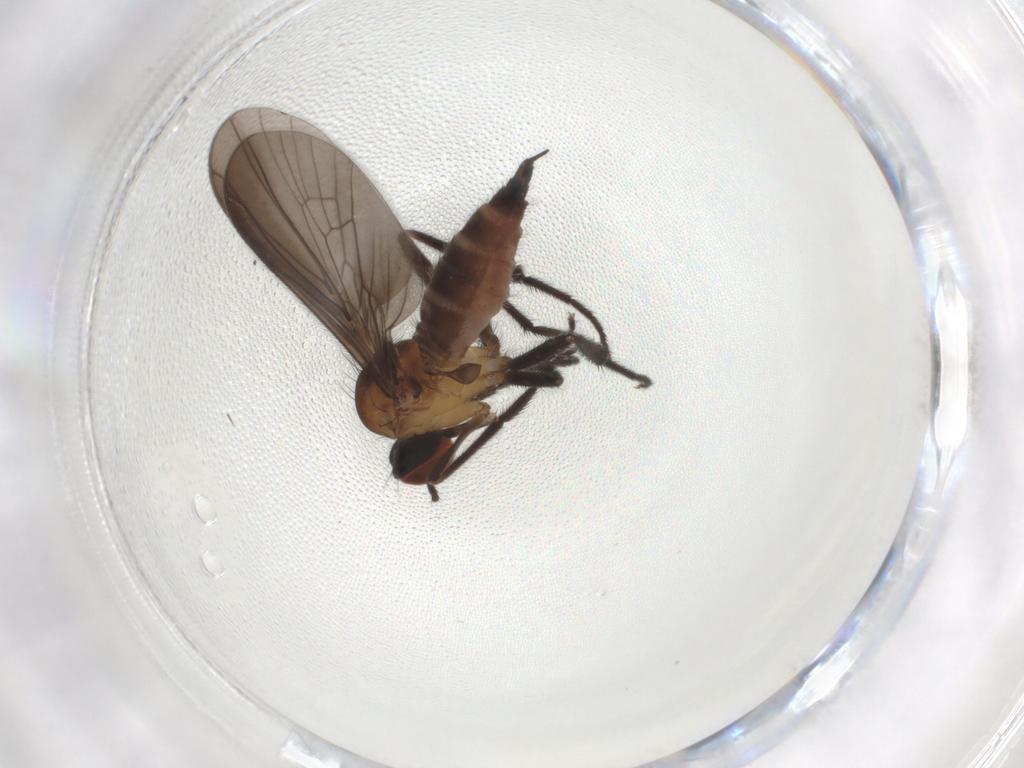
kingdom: Animalia
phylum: Arthropoda
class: Insecta
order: Diptera
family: Empididae
